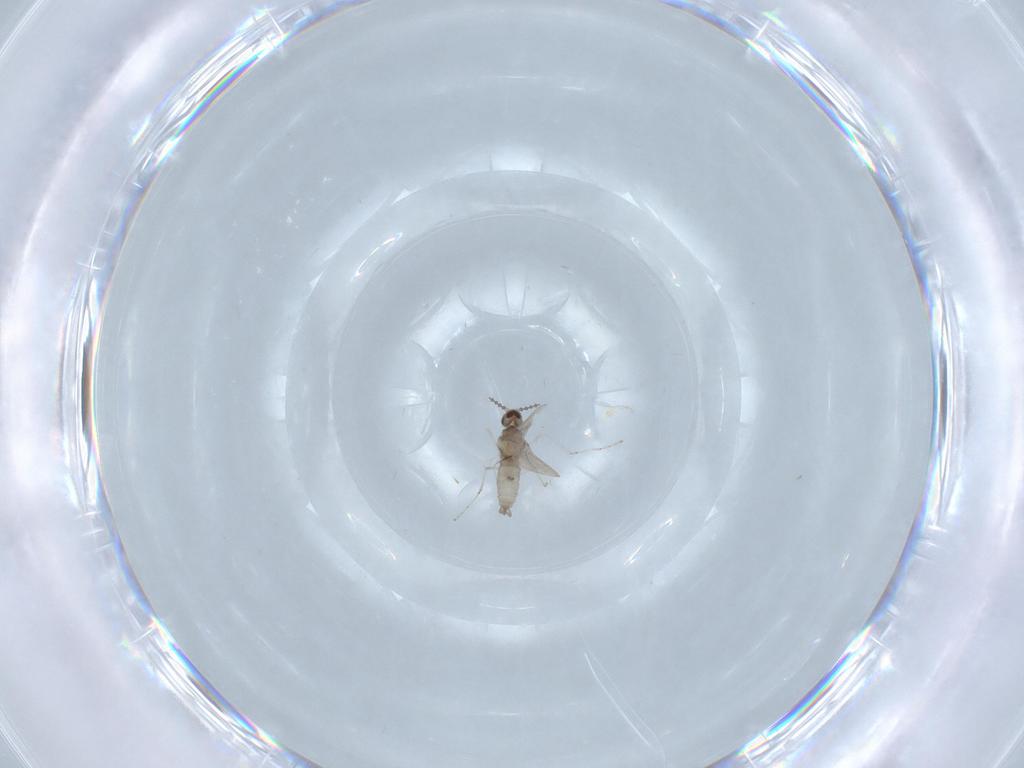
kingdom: Animalia
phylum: Arthropoda
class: Insecta
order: Diptera
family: Cecidomyiidae
